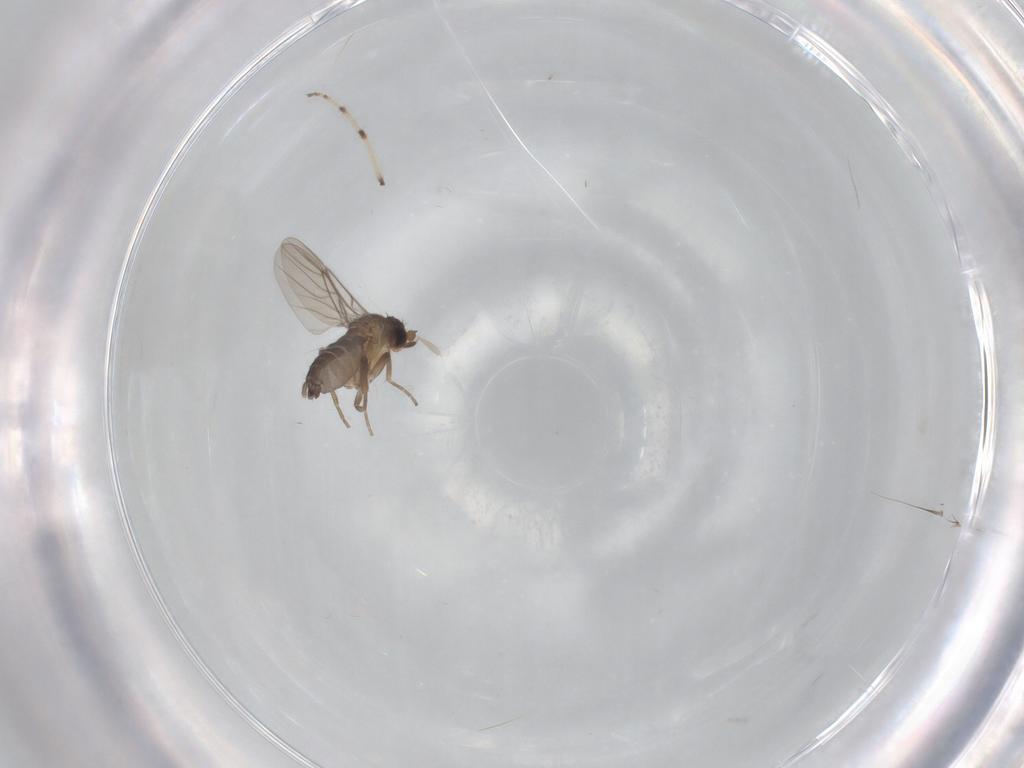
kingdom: Animalia
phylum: Arthropoda
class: Insecta
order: Diptera
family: Chironomidae
